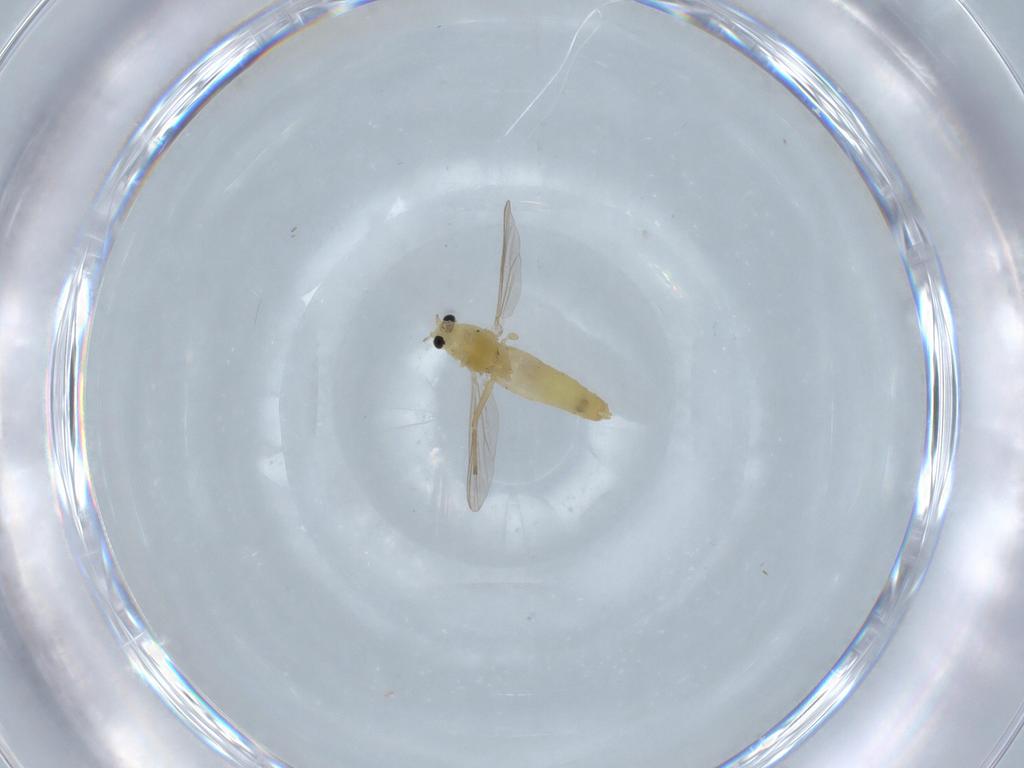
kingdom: Animalia
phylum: Arthropoda
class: Insecta
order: Diptera
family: Chironomidae
